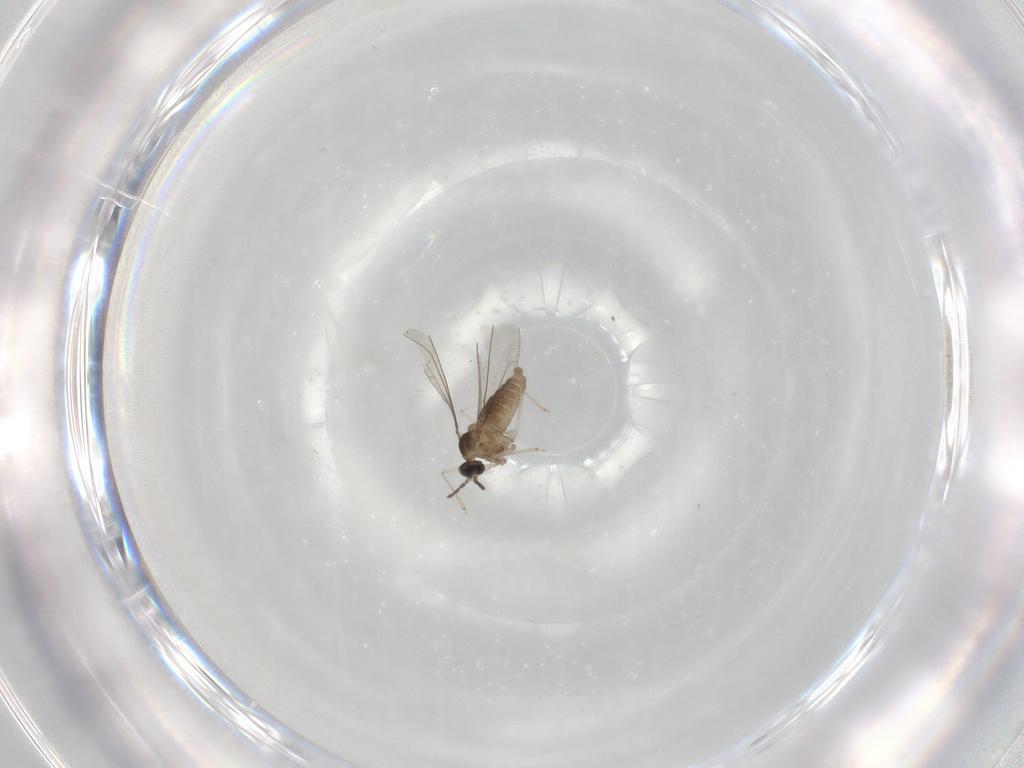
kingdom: Animalia
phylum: Arthropoda
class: Insecta
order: Diptera
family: Cecidomyiidae
